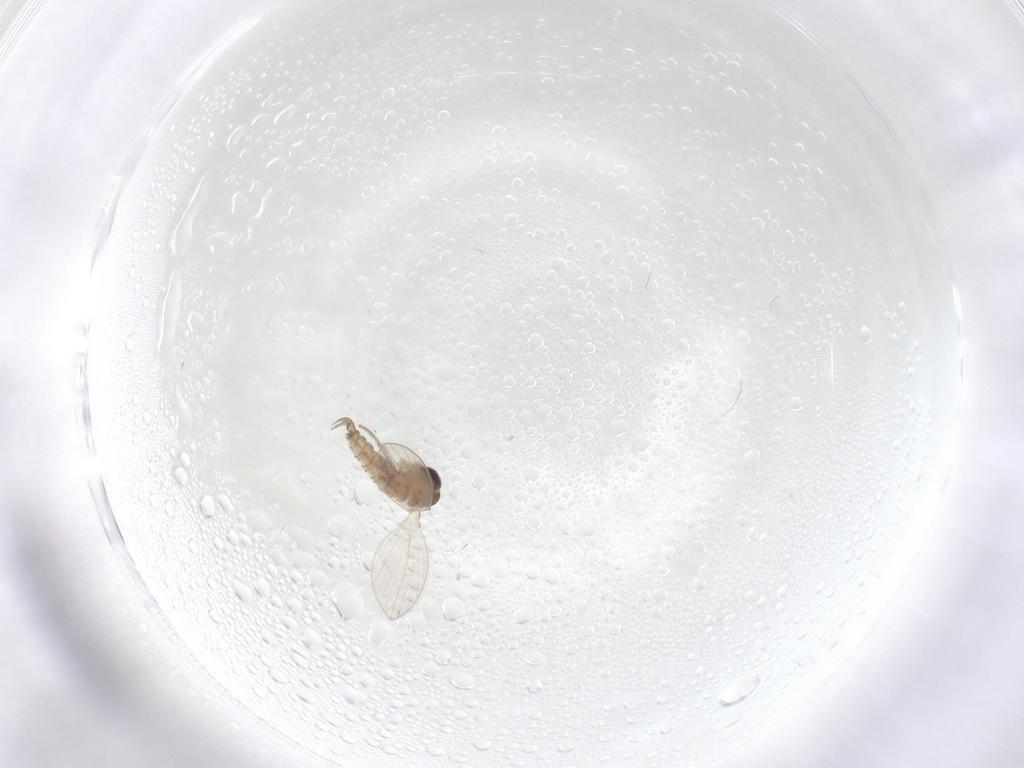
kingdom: Animalia
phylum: Arthropoda
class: Insecta
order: Diptera
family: Psychodidae
